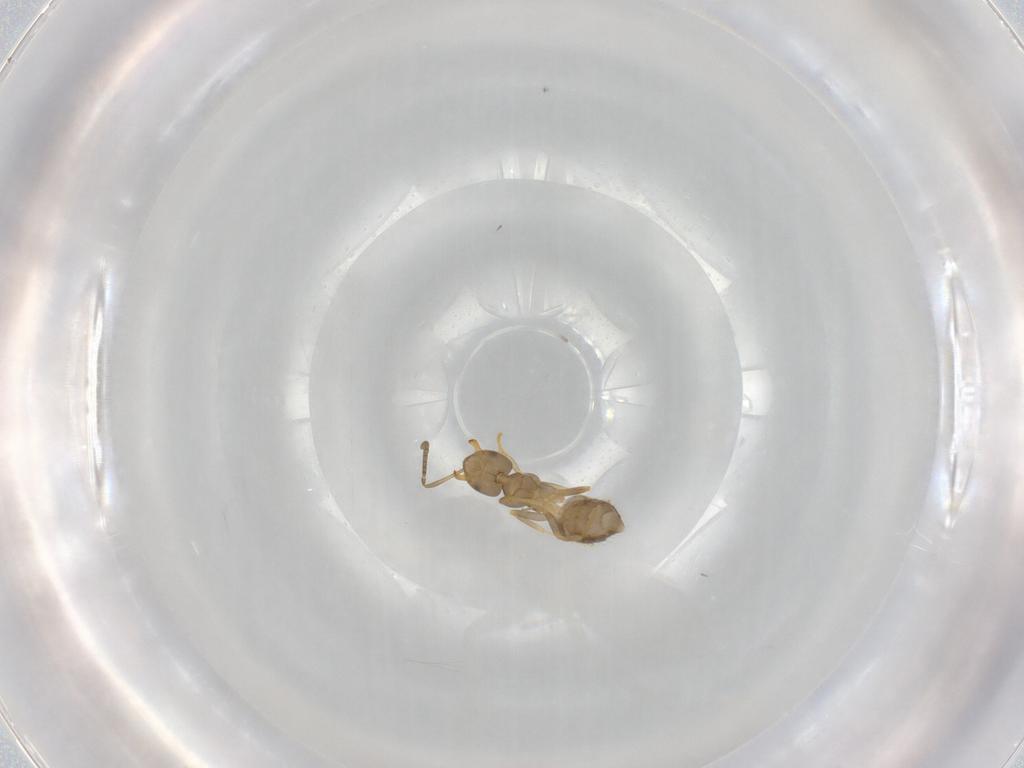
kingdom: Animalia
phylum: Arthropoda
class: Insecta
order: Hymenoptera
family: Formicidae
